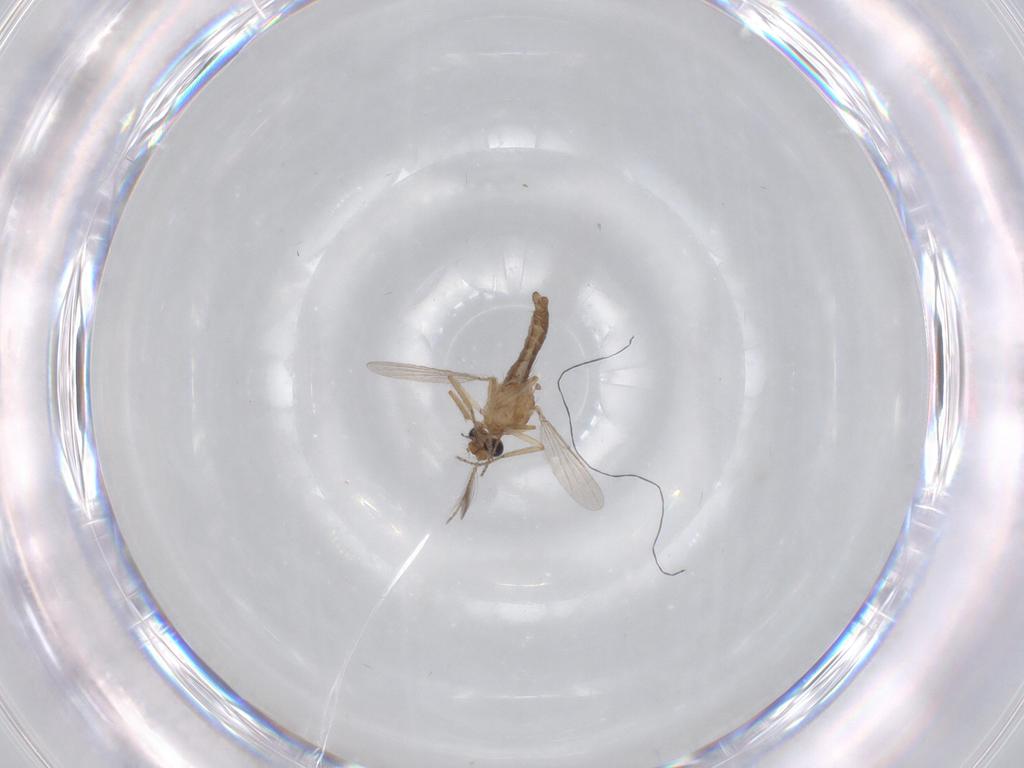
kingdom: Animalia
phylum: Arthropoda
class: Insecta
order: Diptera
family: Ceratopogonidae
